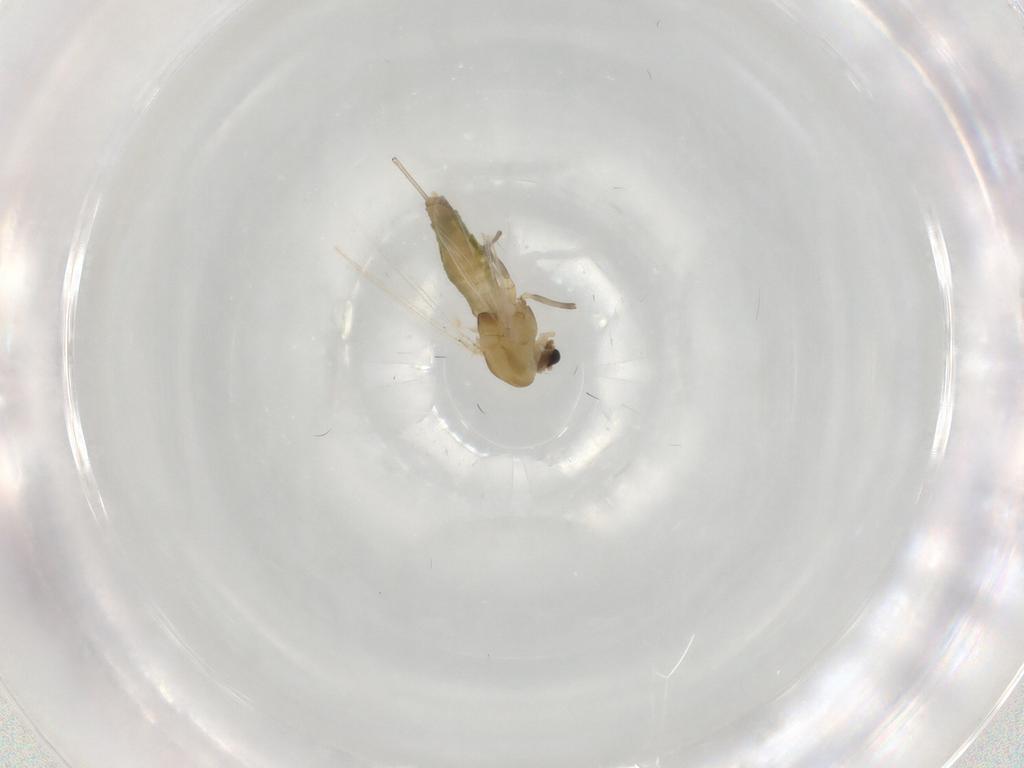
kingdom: Animalia
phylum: Arthropoda
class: Insecta
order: Diptera
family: Chironomidae
